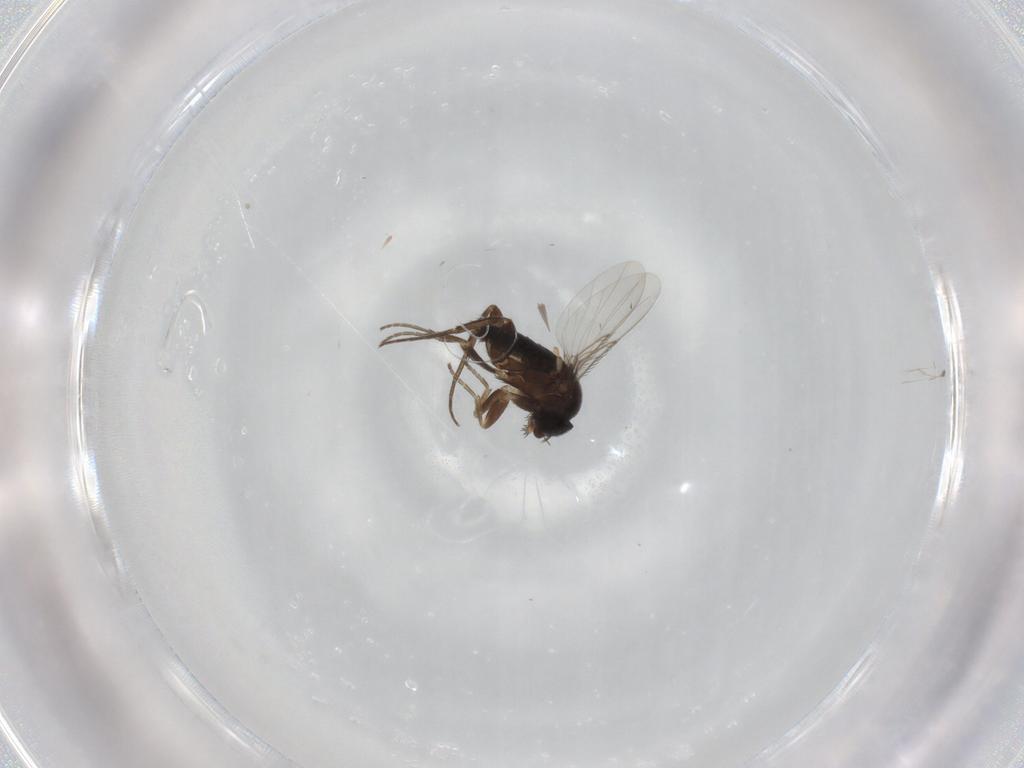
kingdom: Animalia
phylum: Arthropoda
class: Insecta
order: Diptera
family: Phoridae
